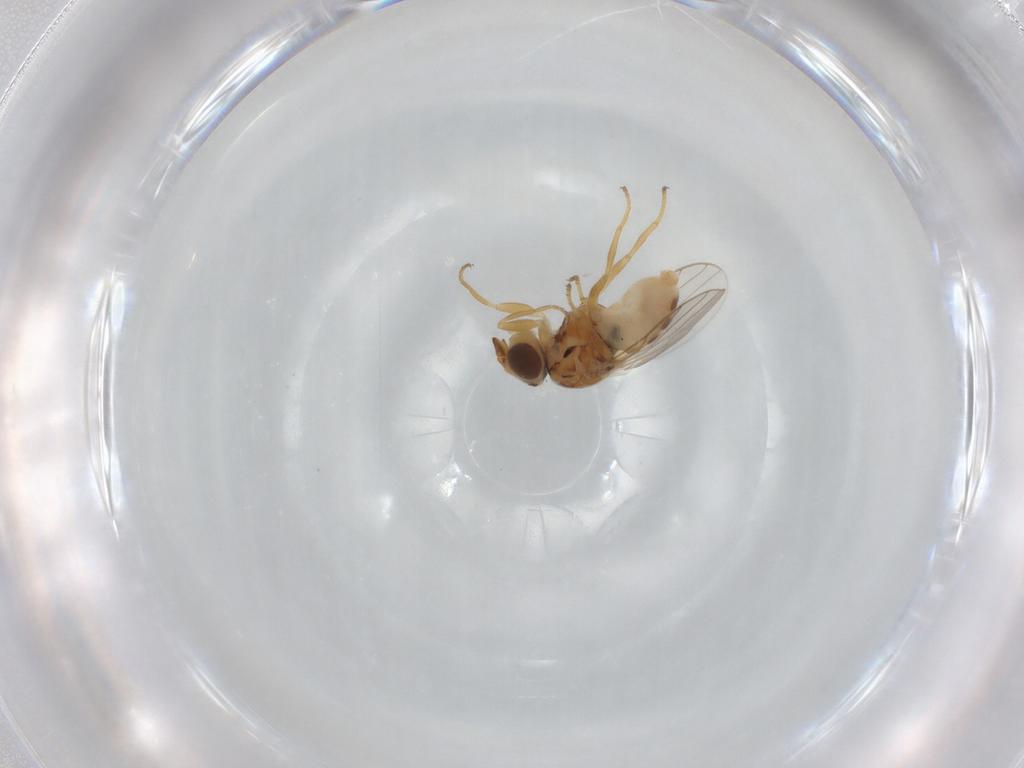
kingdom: Animalia
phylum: Arthropoda
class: Insecta
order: Diptera
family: Chloropidae
